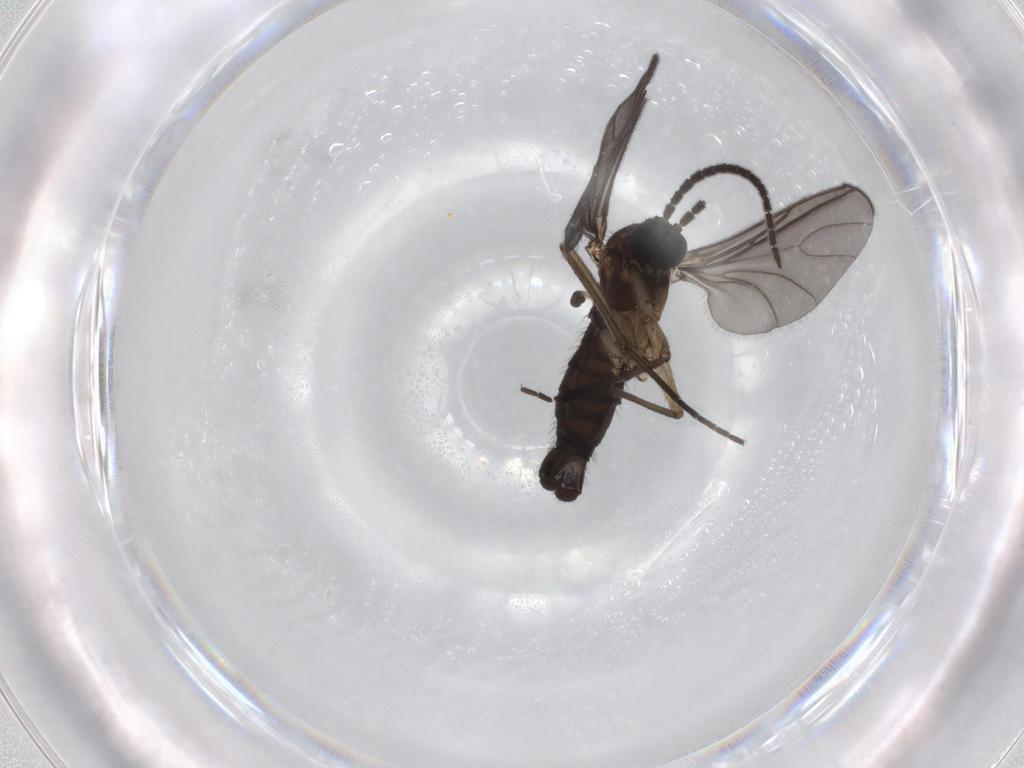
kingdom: Animalia
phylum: Arthropoda
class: Insecta
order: Diptera
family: Sciaridae
